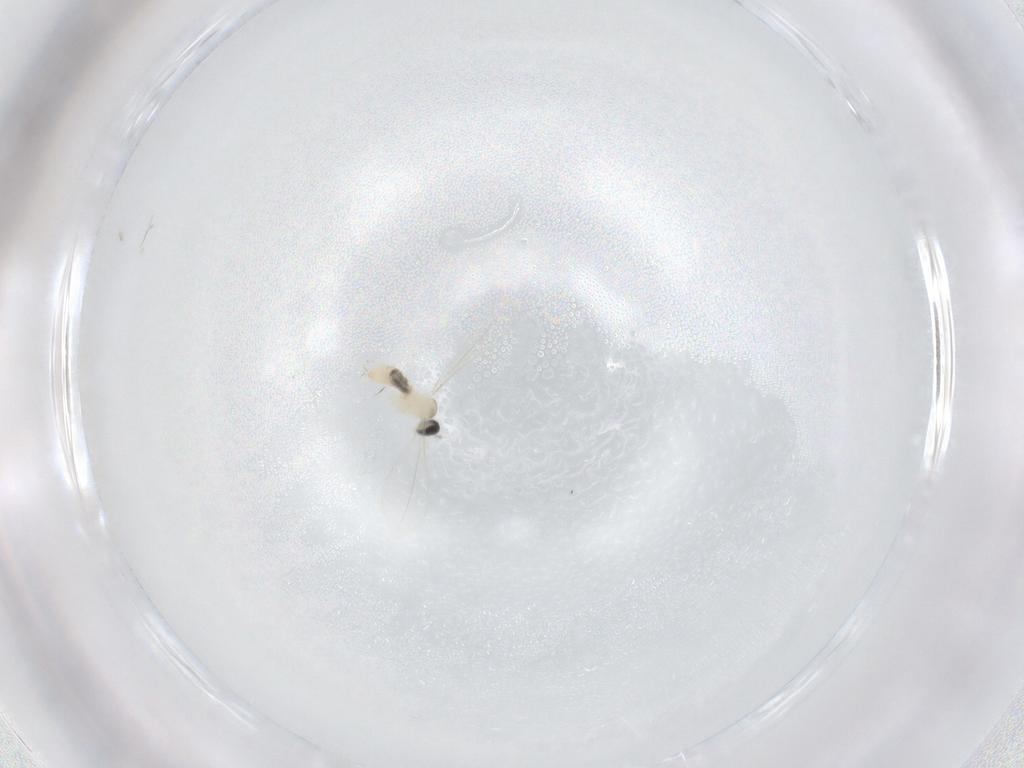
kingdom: Animalia
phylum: Arthropoda
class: Insecta
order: Diptera
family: Cecidomyiidae
